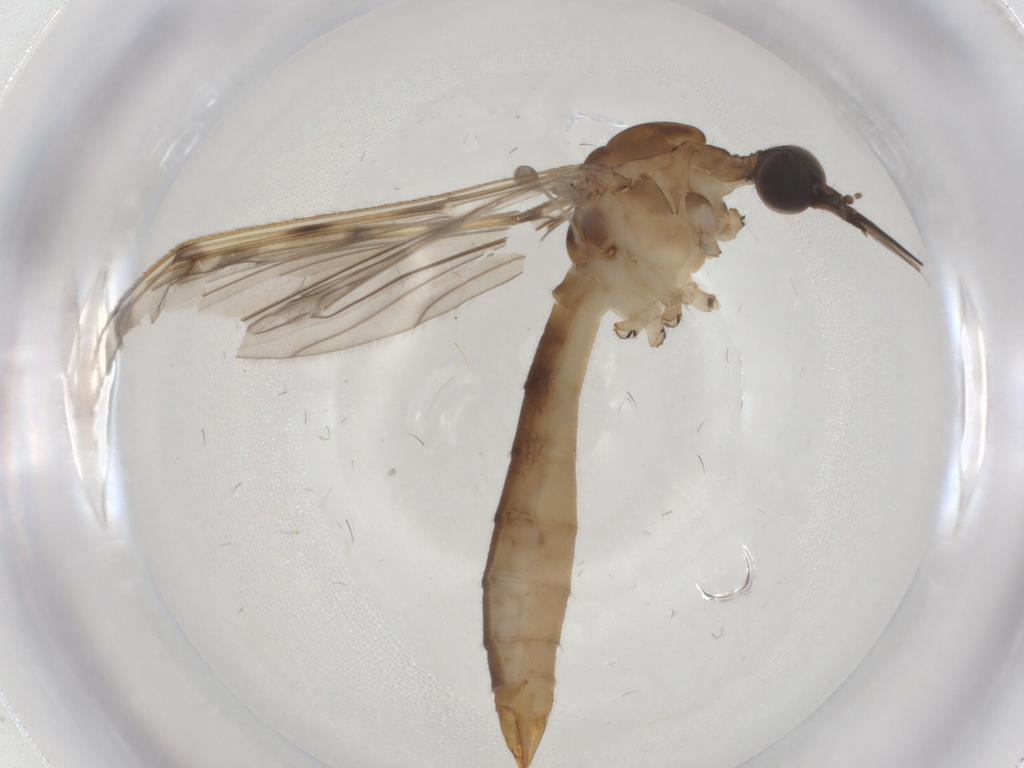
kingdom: Animalia
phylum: Arthropoda
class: Insecta
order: Diptera
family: Sciaridae
